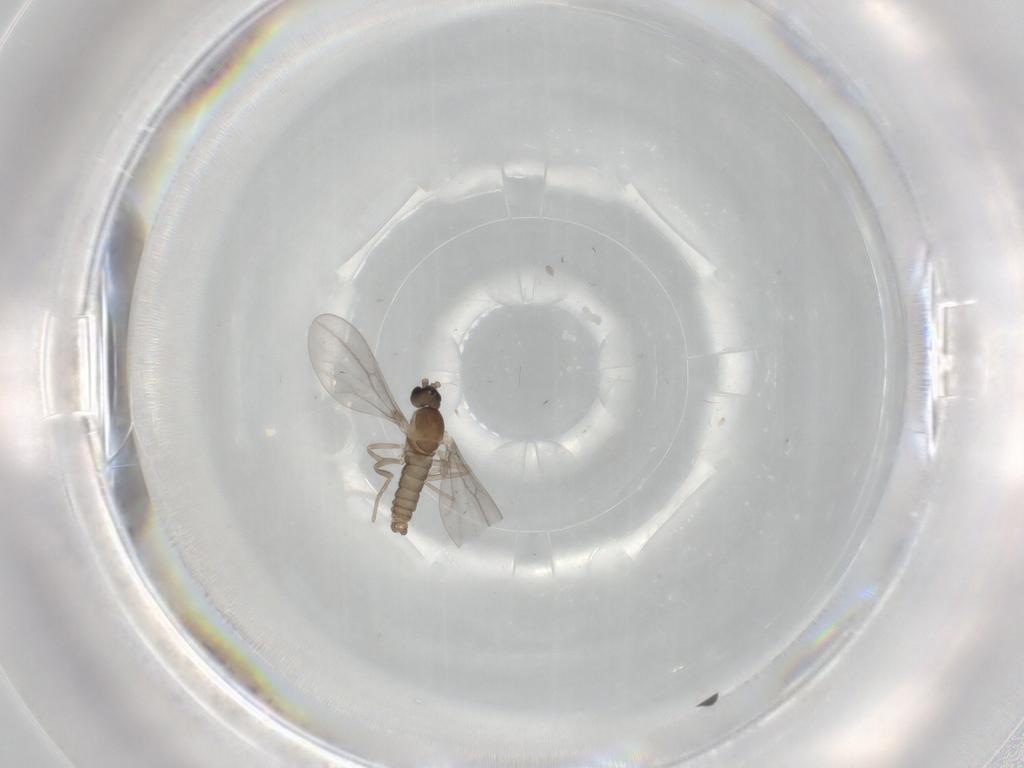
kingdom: Animalia
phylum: Arthropoda
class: Insecta
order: Diptera
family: Cecidomyiidae
